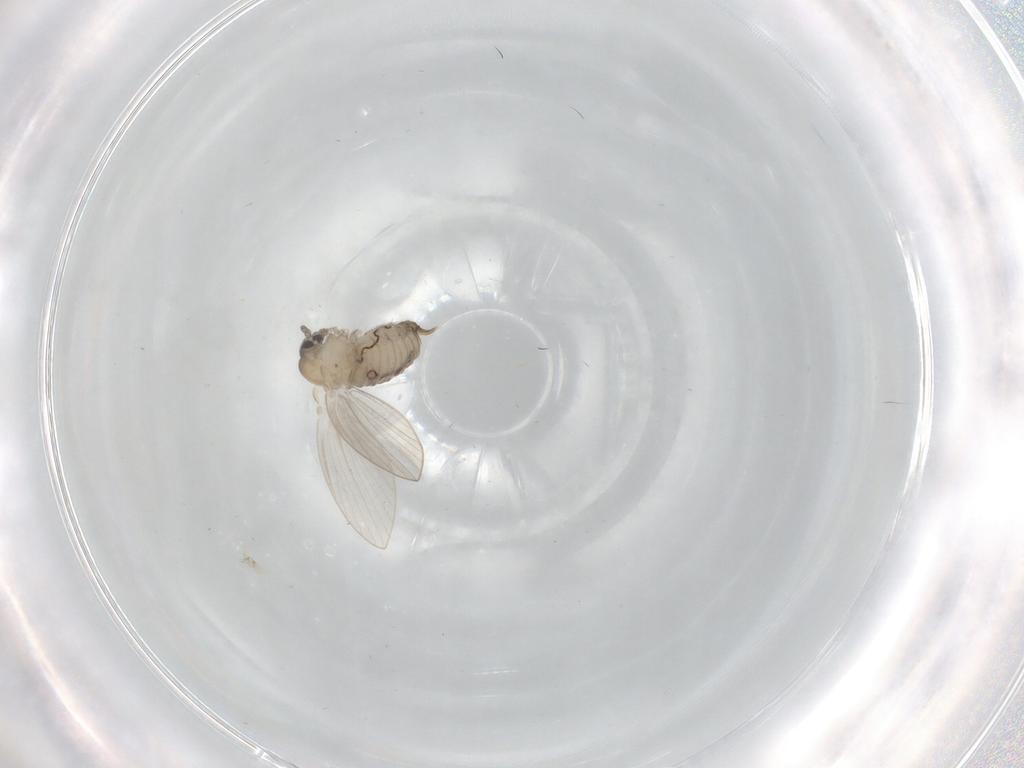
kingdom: Animalia
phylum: Arthropoda
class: Insecta
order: Diptera
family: Psychodidae
